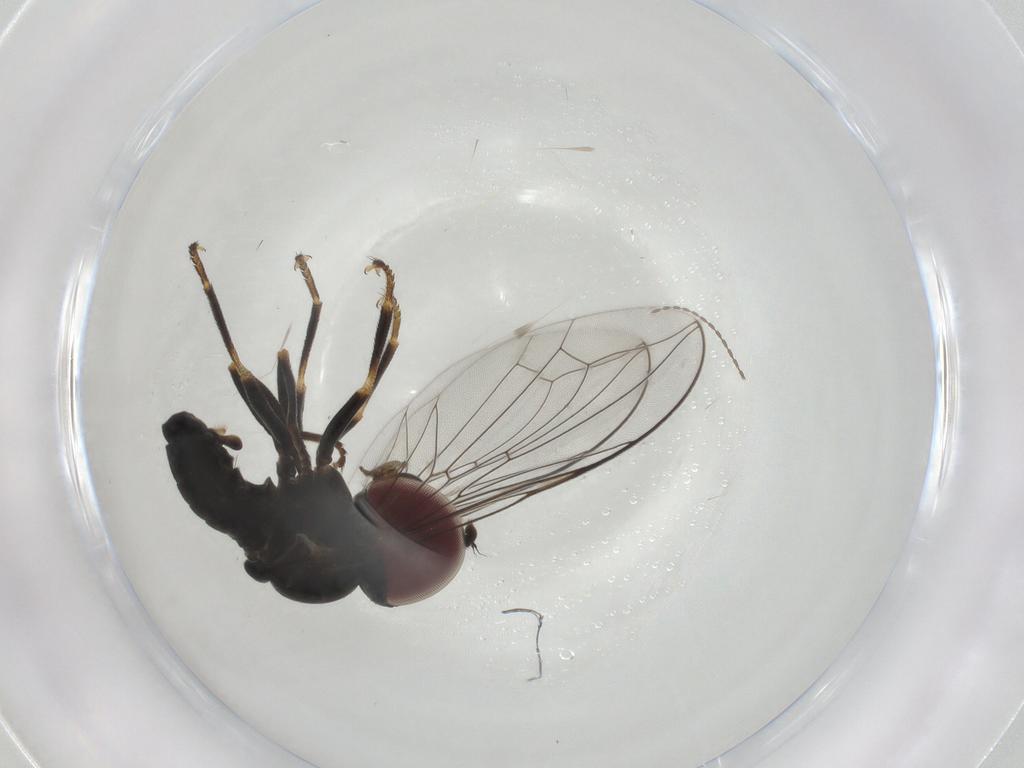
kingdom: Animalia
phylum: Arthropoda
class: Insecta
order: Diptera
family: Pipunculidae
